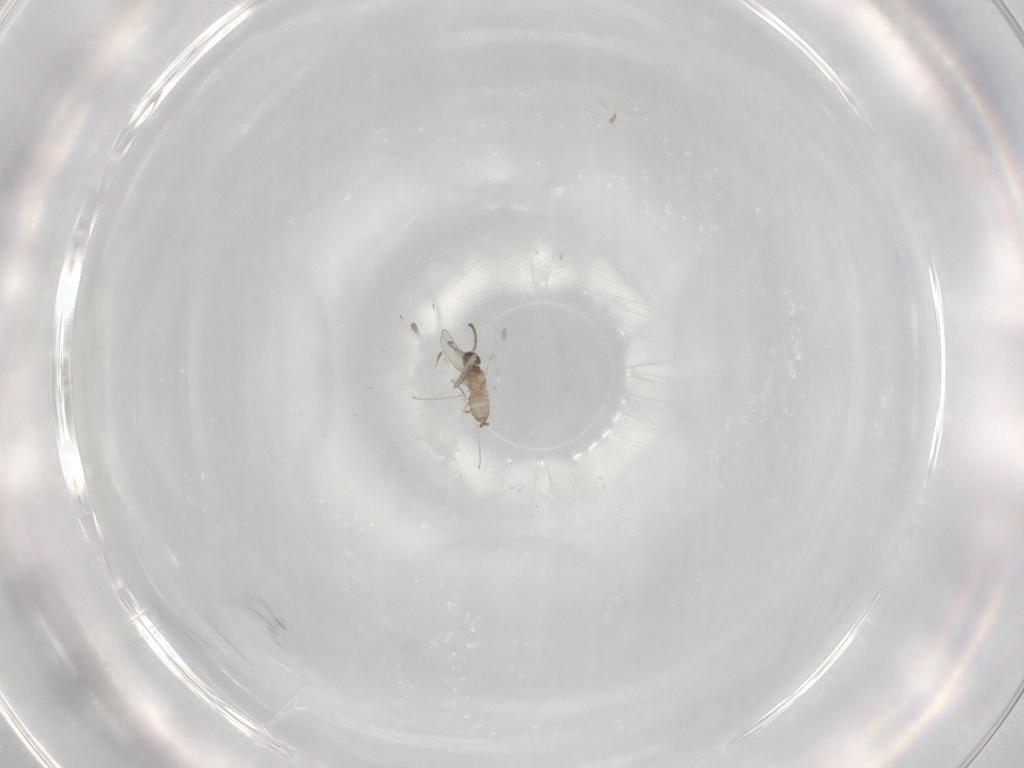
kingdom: Animalia
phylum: Arthropoda
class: Insecta
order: Diptera
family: Cecidomyiidae
